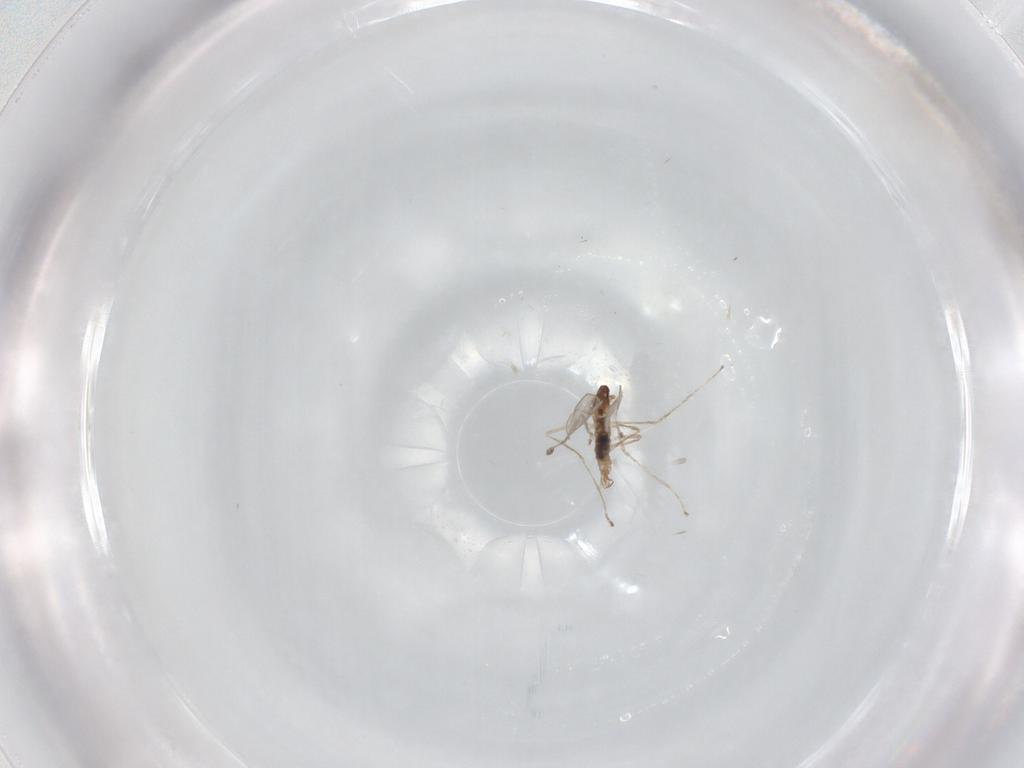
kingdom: Animalia
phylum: Arthropoda
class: Insecta
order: Diptera
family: Cecidomyiidae
